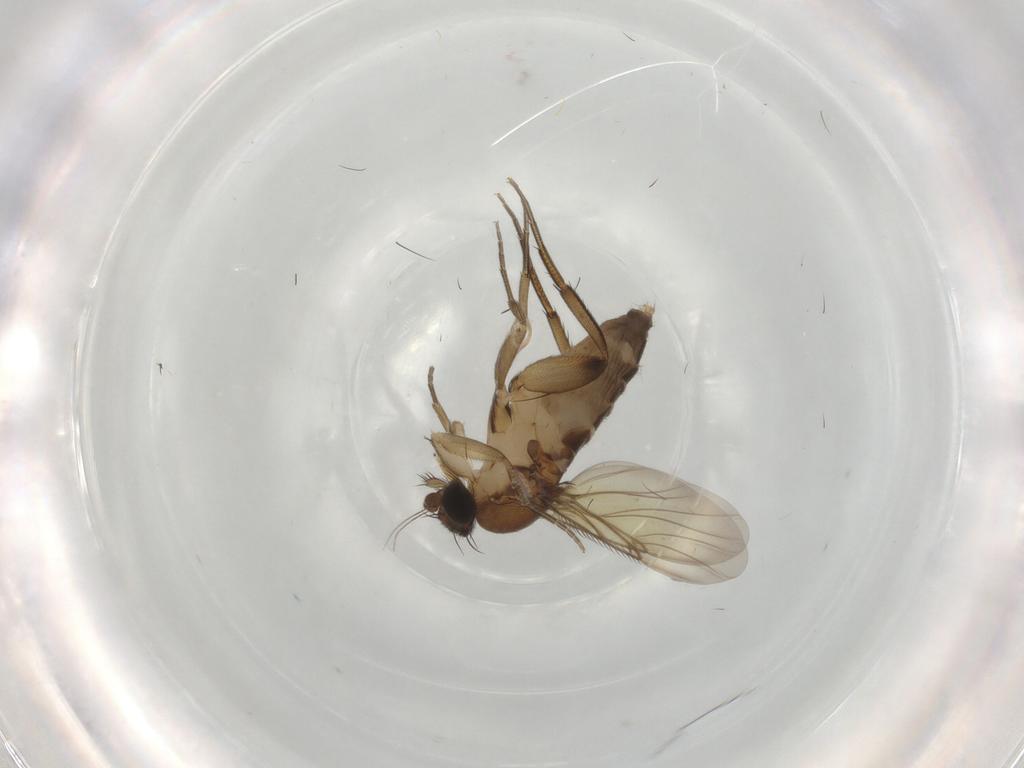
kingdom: Animalia
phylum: Arthropoda
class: Insecta
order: Diptera
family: Phoridae
